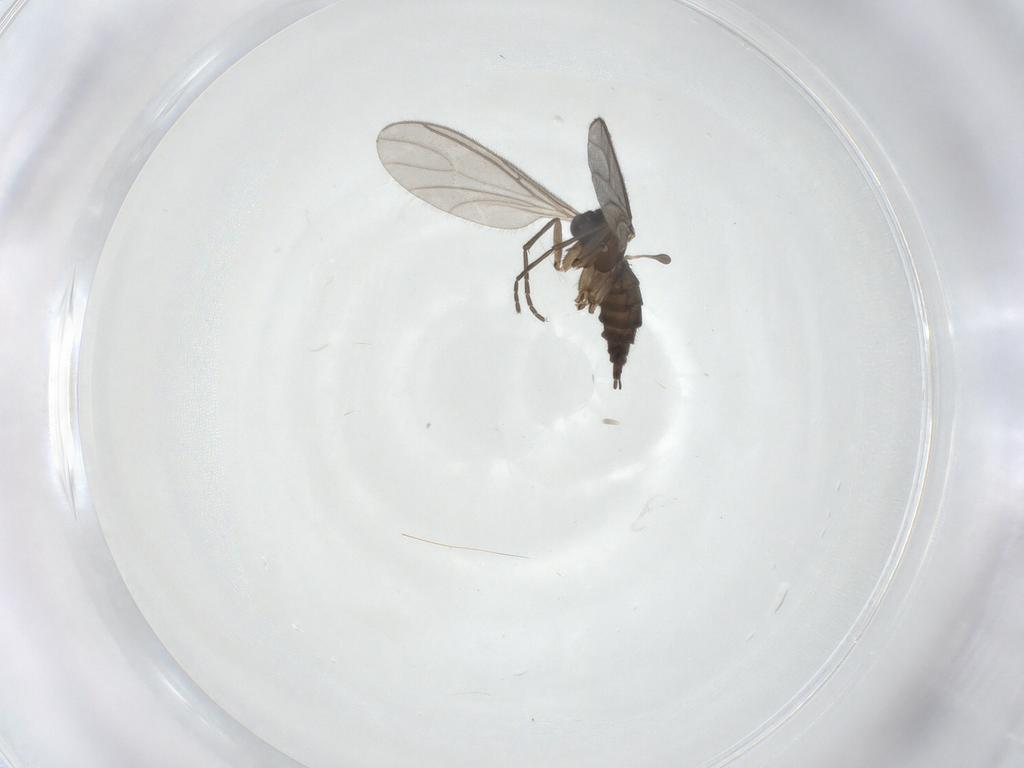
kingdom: Animalia
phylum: Arthropoda
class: Insecta
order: Diptera
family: Sciaridae
